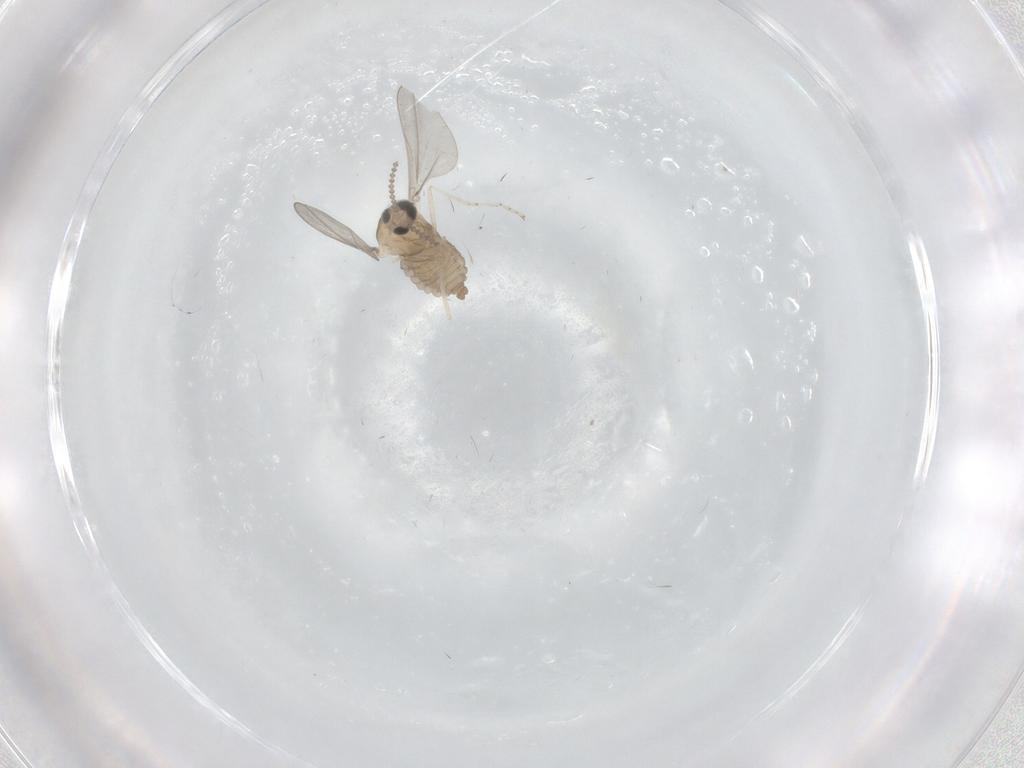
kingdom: Animalia
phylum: Arthropoda
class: Insecta
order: Diptera
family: Cecidomyiidae
